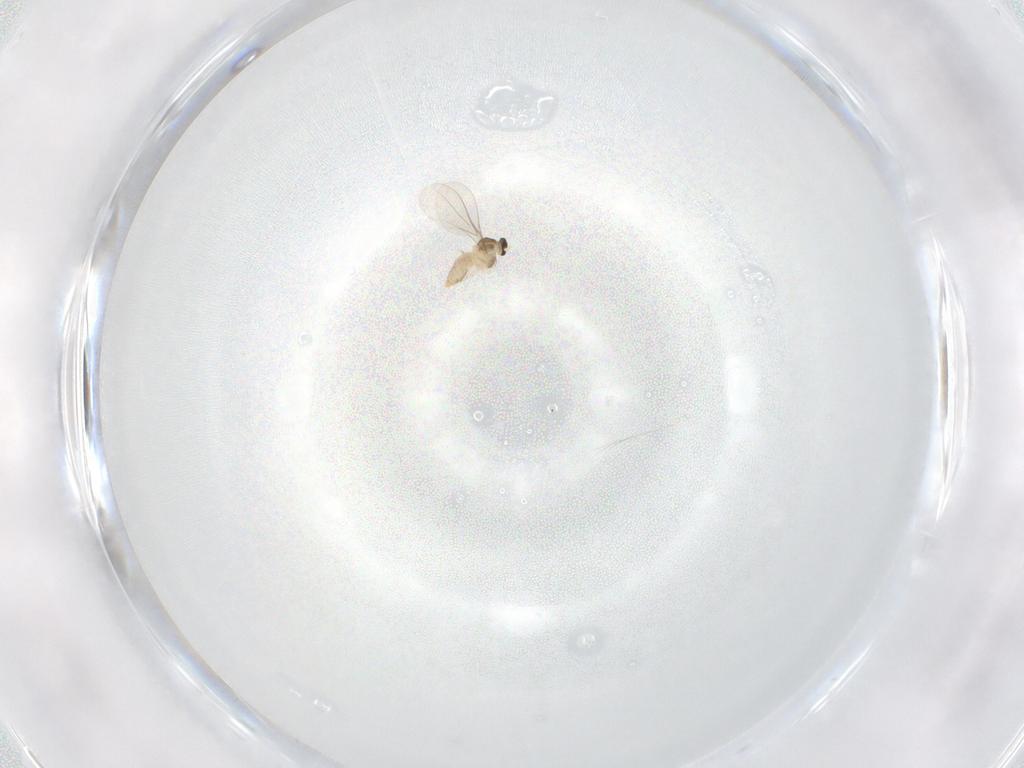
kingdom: Animalia
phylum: Arthropoda
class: Insecta
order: Diptera
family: Cecidomyiidae
